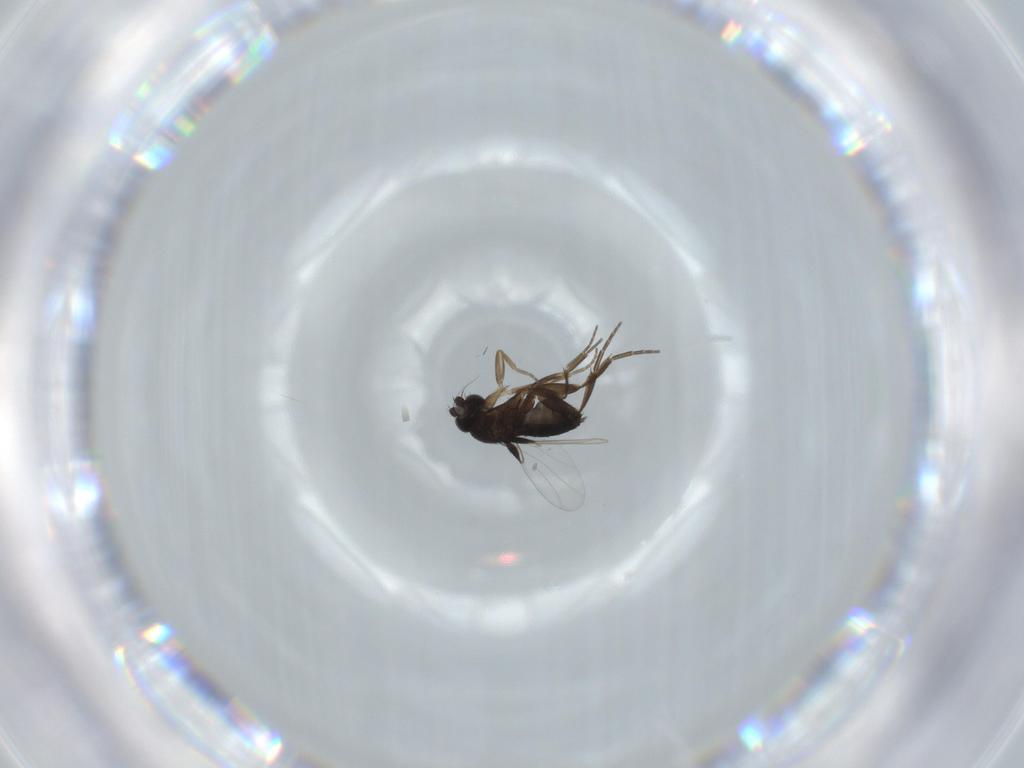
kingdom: Animalia
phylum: Arthropoda
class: Insecta
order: Diptera
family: Phoridae
